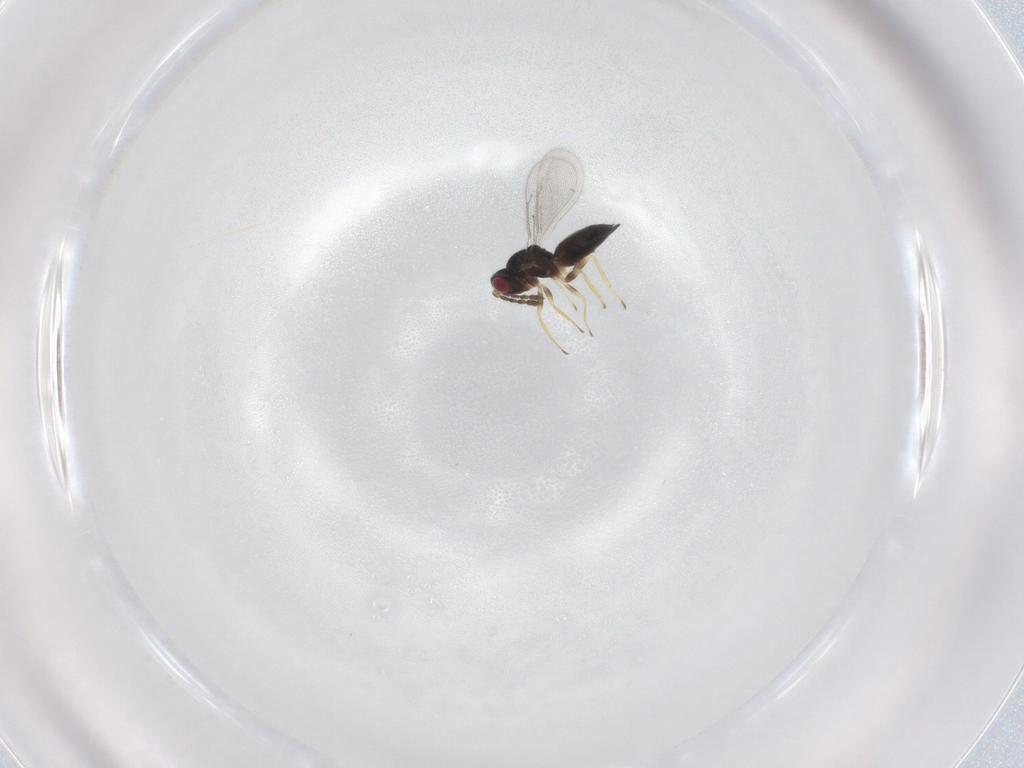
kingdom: Animalia
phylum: Arthropoda
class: Insecta
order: Hymenoptera
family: Eulophidae
